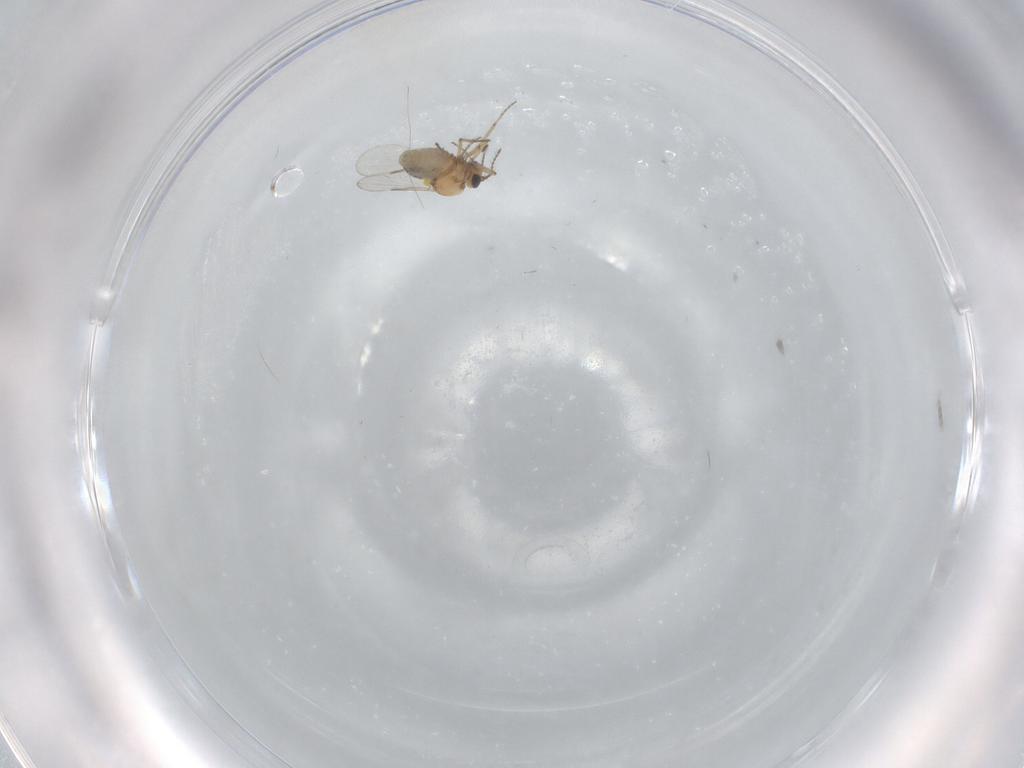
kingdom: Animalia
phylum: Arthropoda
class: Insecta
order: Diptera
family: Ceratopogonidae
